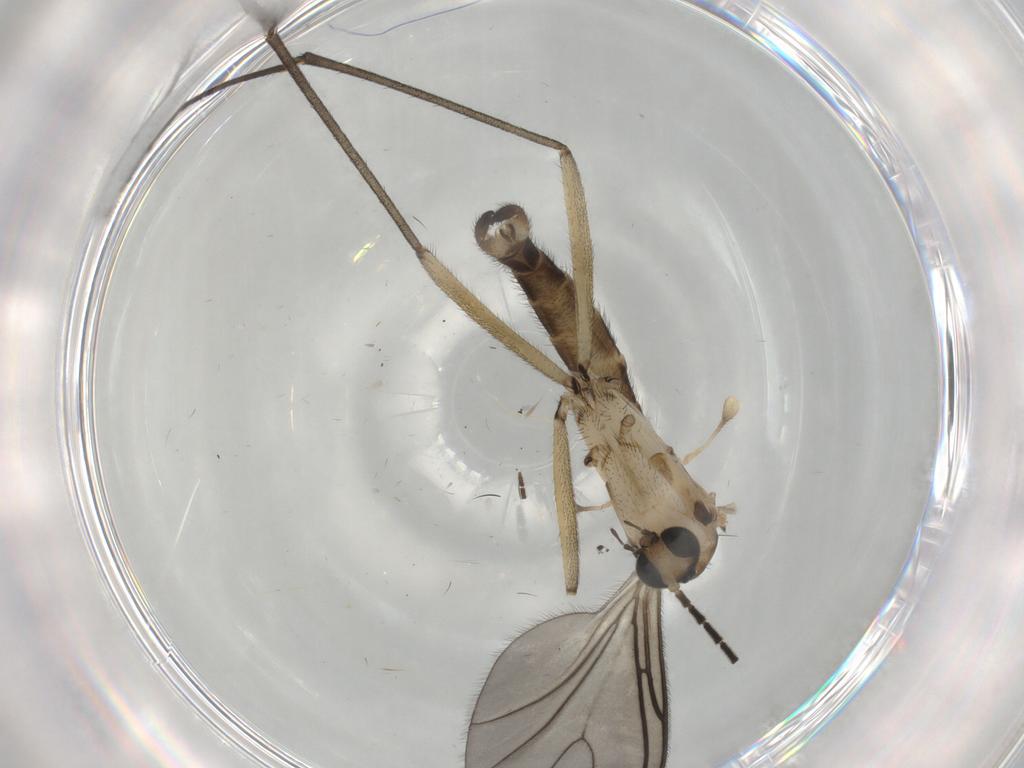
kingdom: Animalia
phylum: Arthropoda
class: Insecta
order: Diptera
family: Sciaridae
